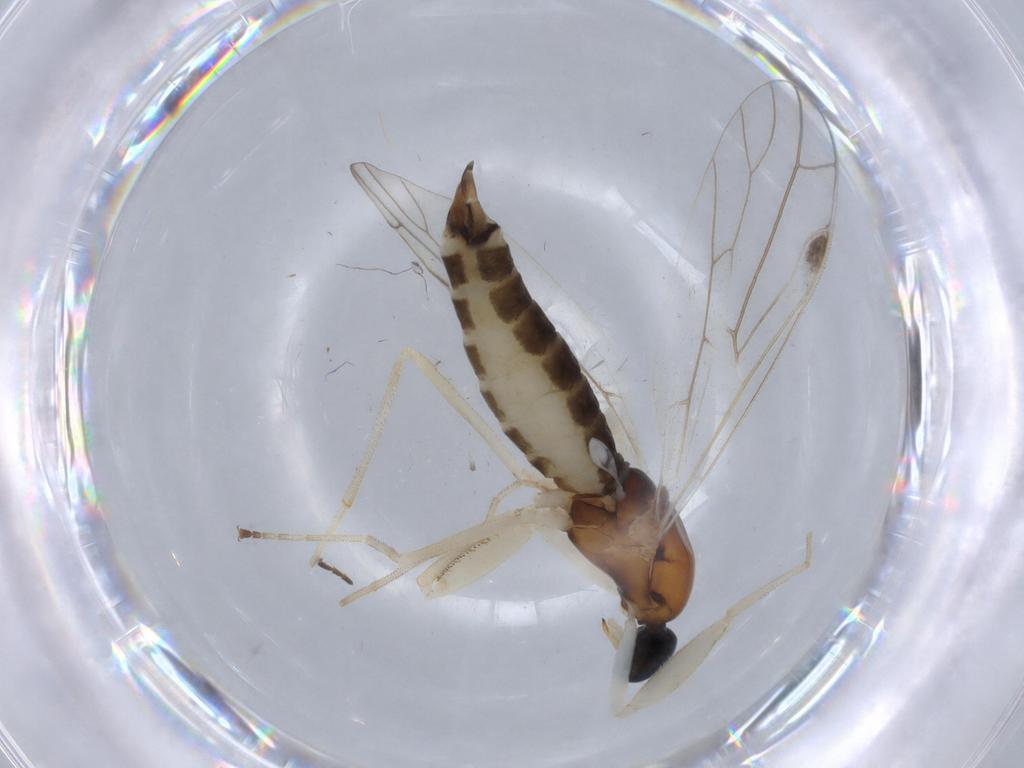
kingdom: Animalia
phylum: Arthropoda
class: Insecta
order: Diptera
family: Empididae
